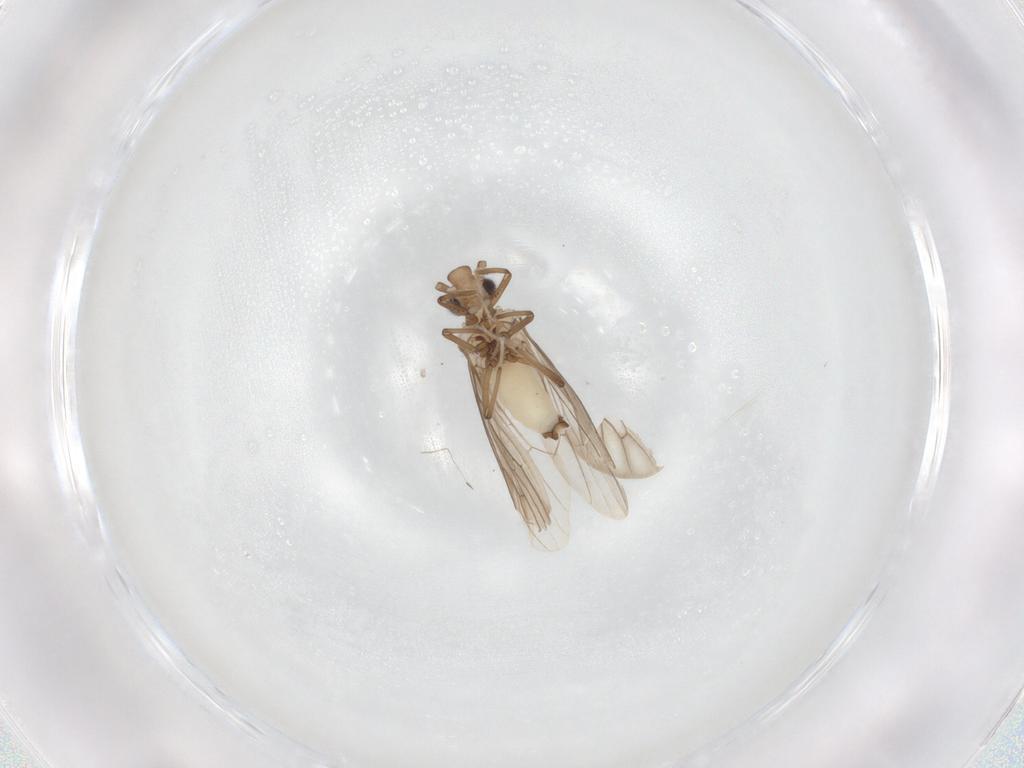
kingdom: Animalia
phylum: Arthropoda
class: Insecta
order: Neuroptera
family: Coniopterygidae
